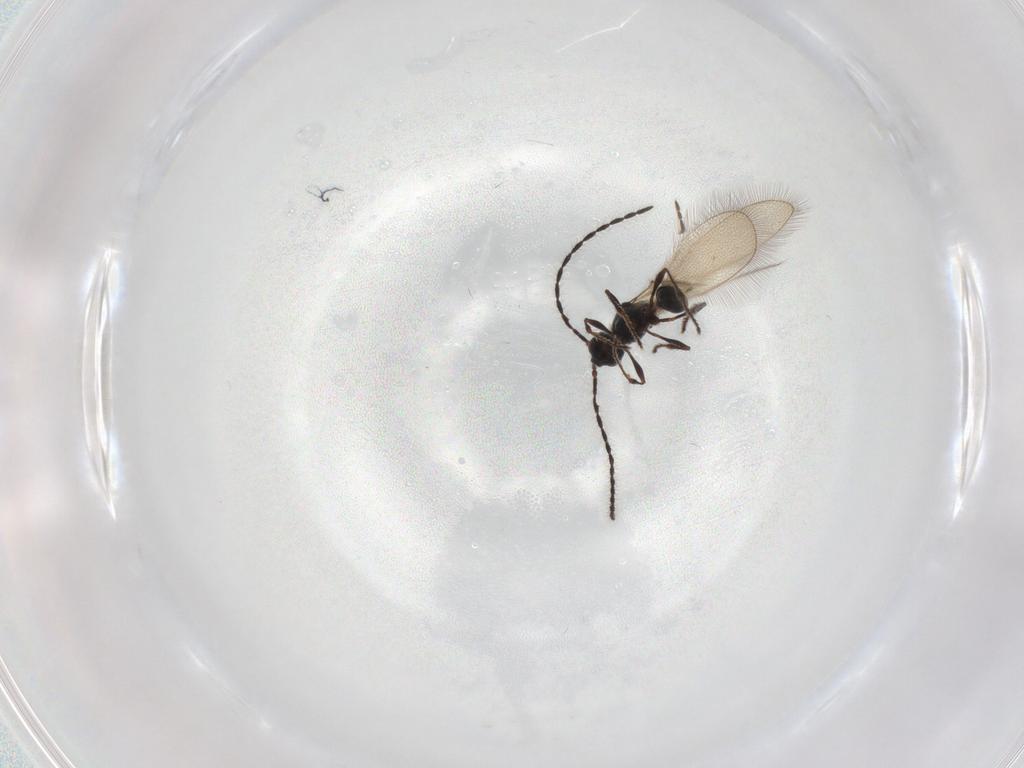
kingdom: Animalia
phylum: Arthropoda
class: Insecta
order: Hymenoptera
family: Diapriidae
